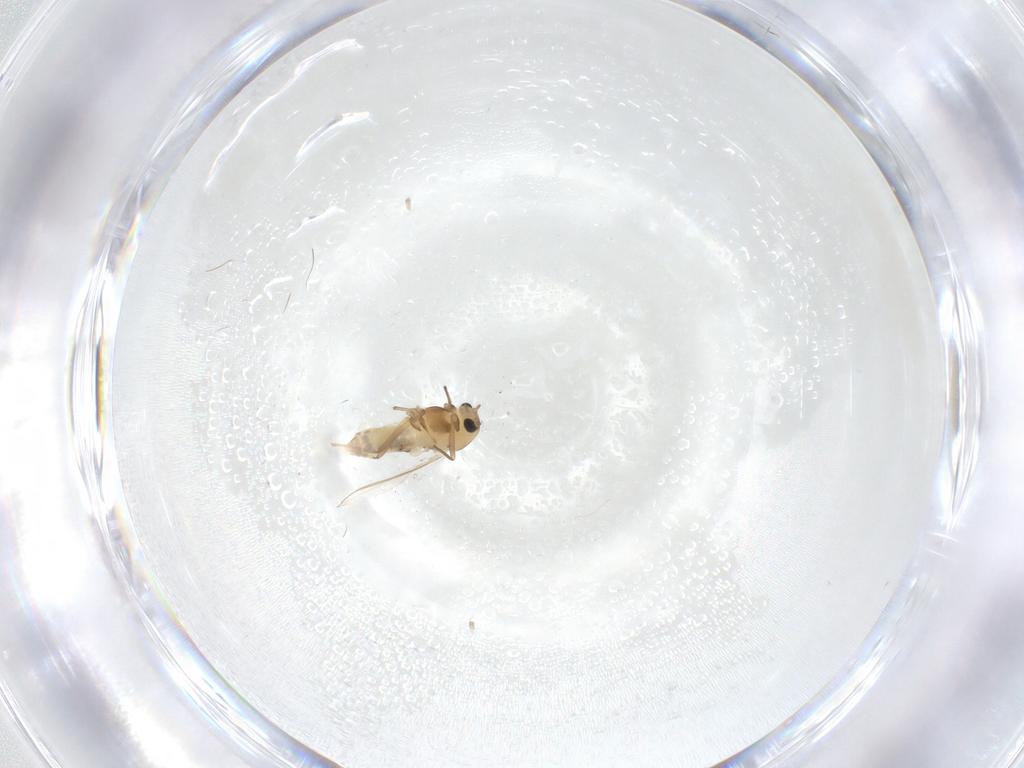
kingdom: Animalia
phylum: Arthropoda
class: Insecta
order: Diptera
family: Chironomidae
